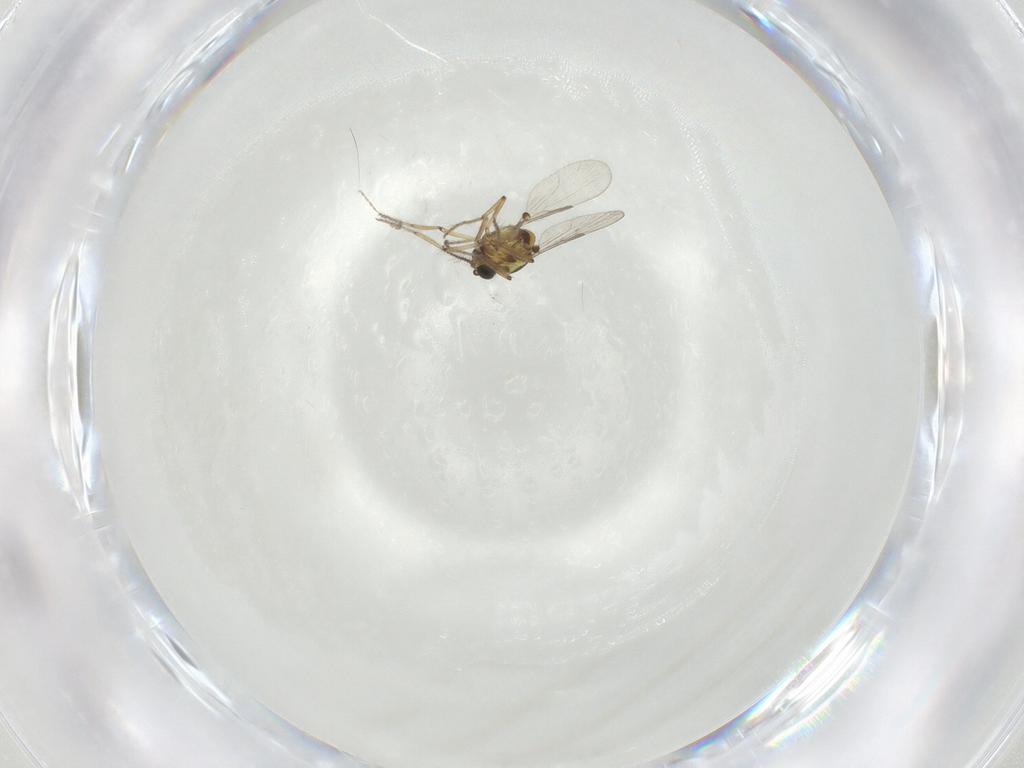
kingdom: Animalia
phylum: Arthropoda
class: Insecta
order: Diptera
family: Ceratopogonidae
